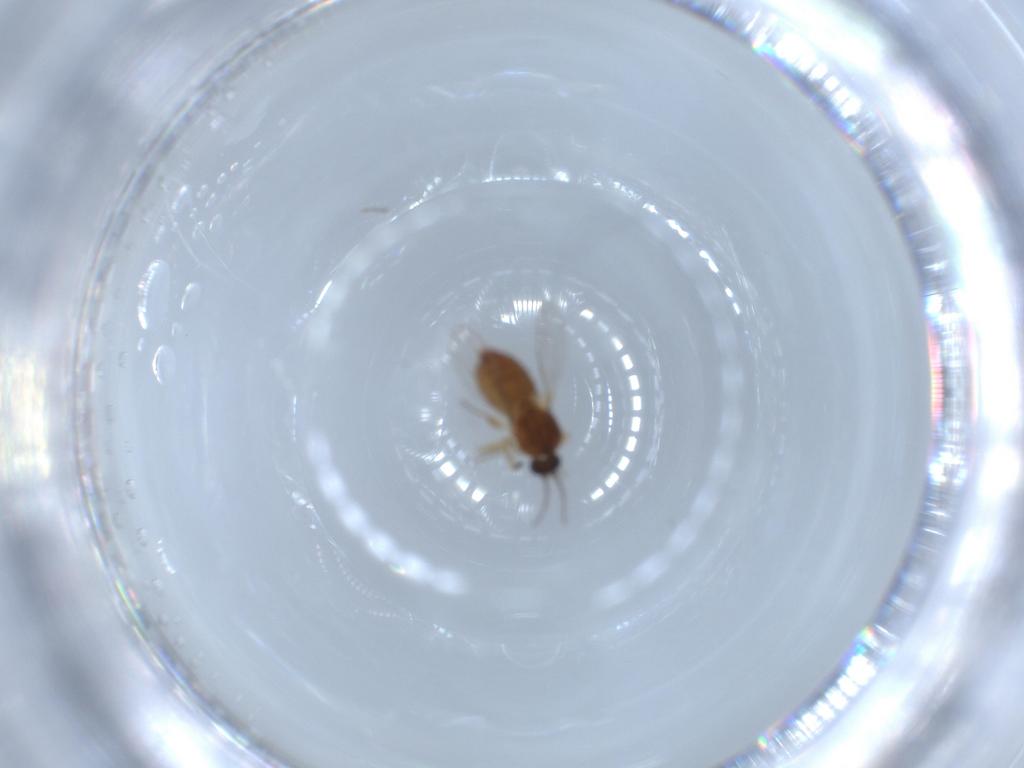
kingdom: Animalia
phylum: Arthropoda
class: Insecta
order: Diptera
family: Ceratopogonidae
